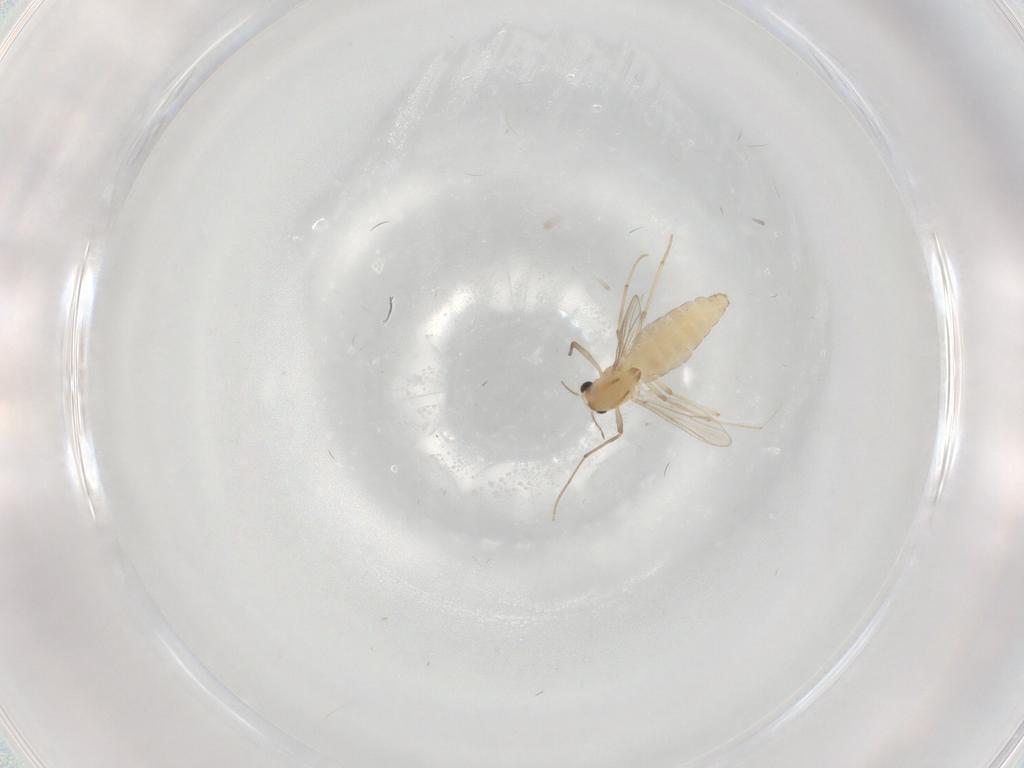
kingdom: Animalia
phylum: Arthropoda
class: Insecta
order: Diptera
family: Chironomidae
